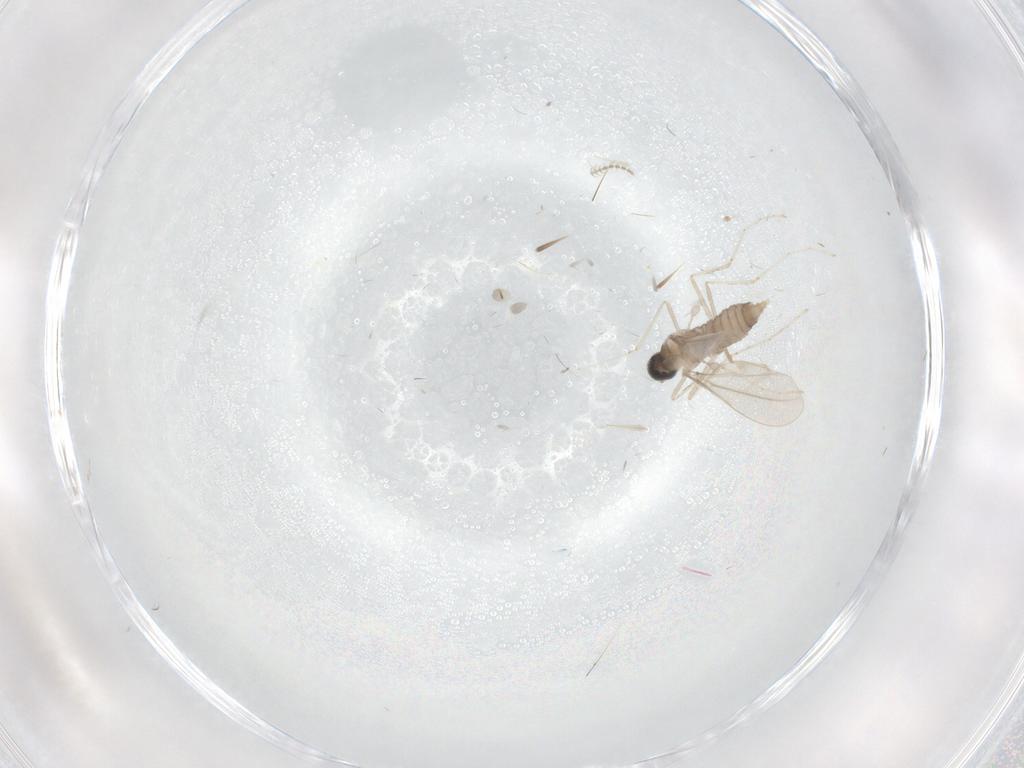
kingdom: Animalia
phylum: Arthropoda
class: Insecta
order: Diptera
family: Cecidomyiidae
